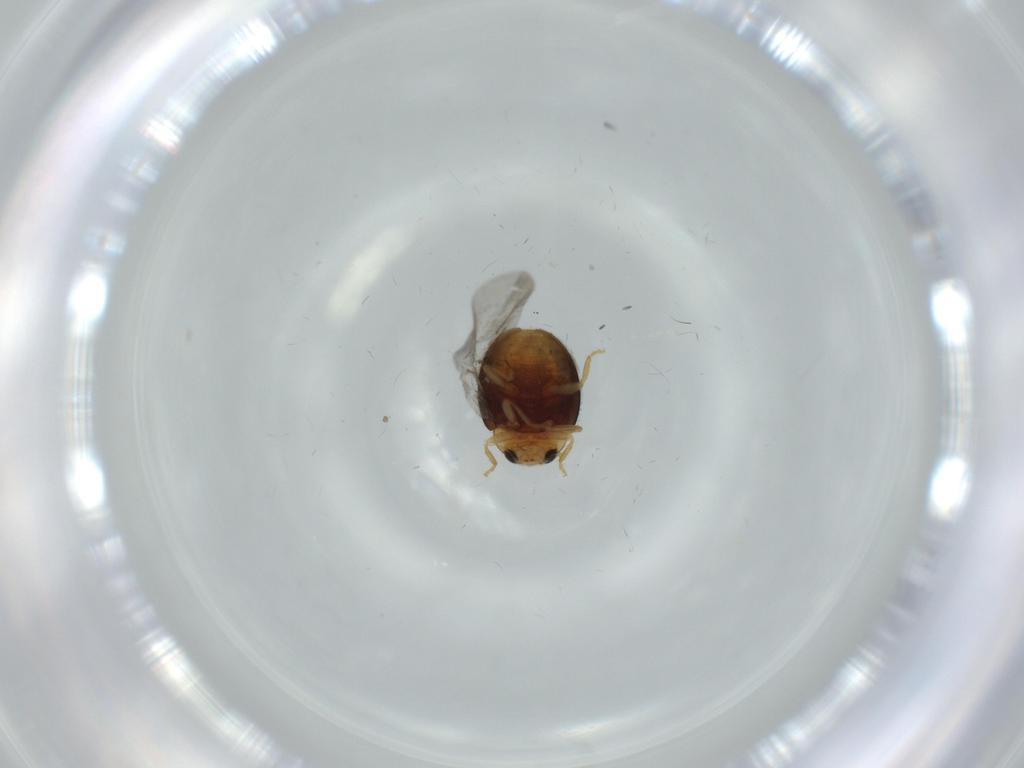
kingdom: Animalia
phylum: Arthropoda
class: Insecta
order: Coleoptera
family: Coccinellidae
